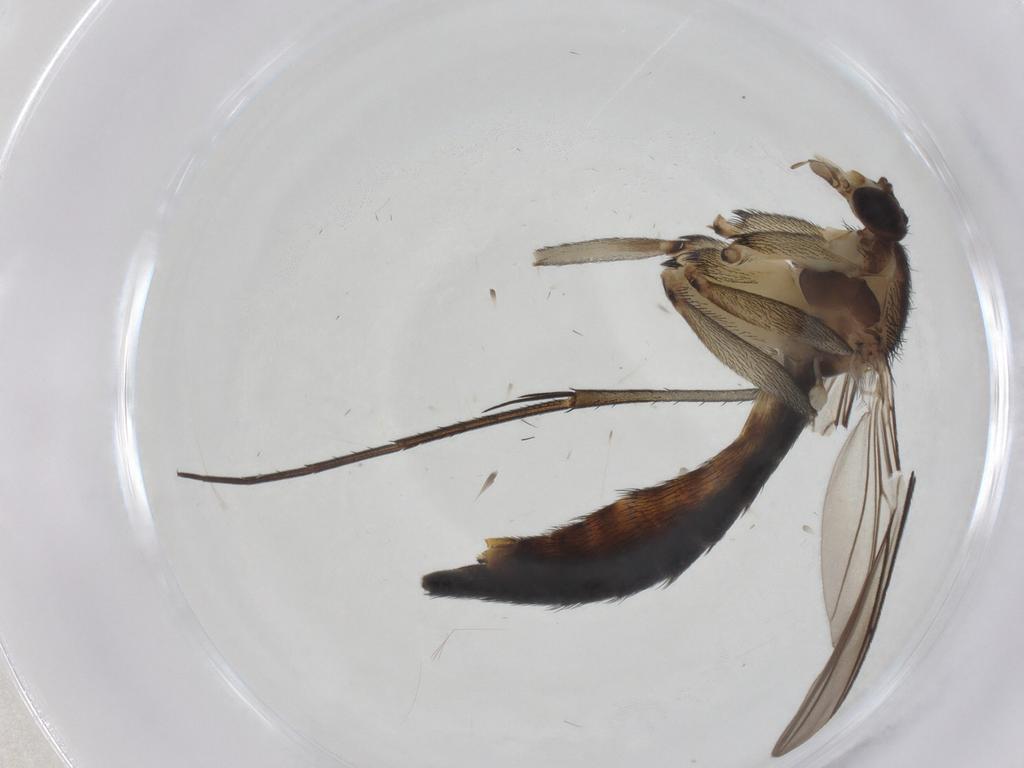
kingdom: Animalia
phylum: Arthropoda
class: Insecta
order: Diptera
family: Keroplatidae
